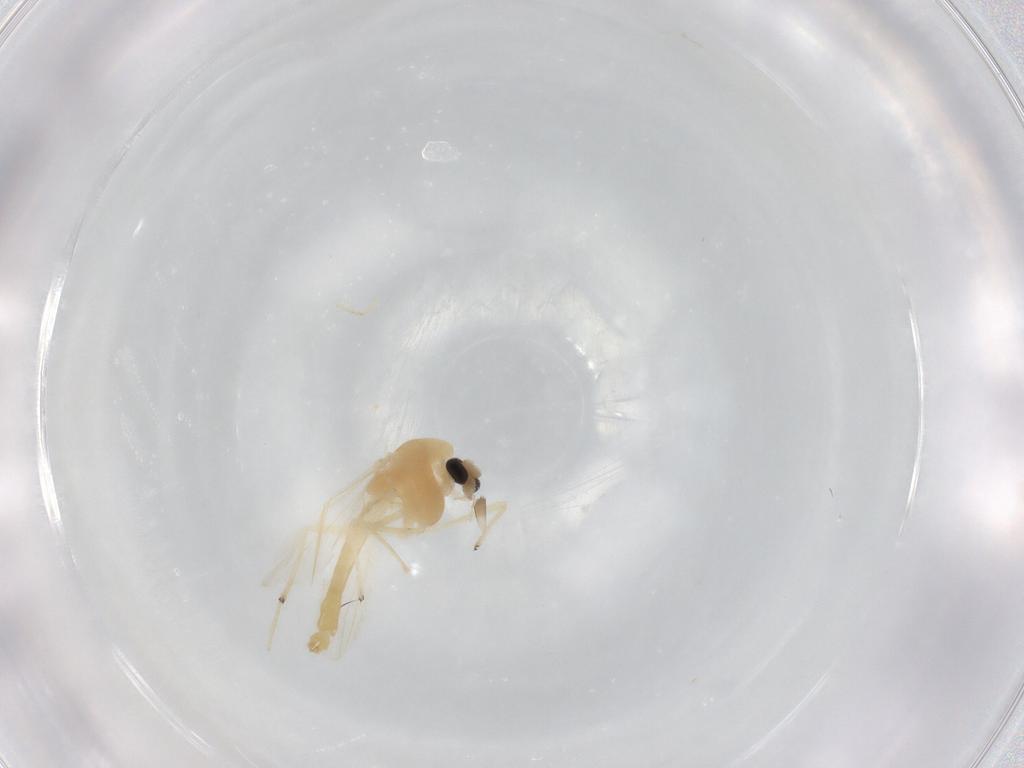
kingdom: Animalia
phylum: Arthropoda
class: Insecta
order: Diptera
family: Chironomidae
